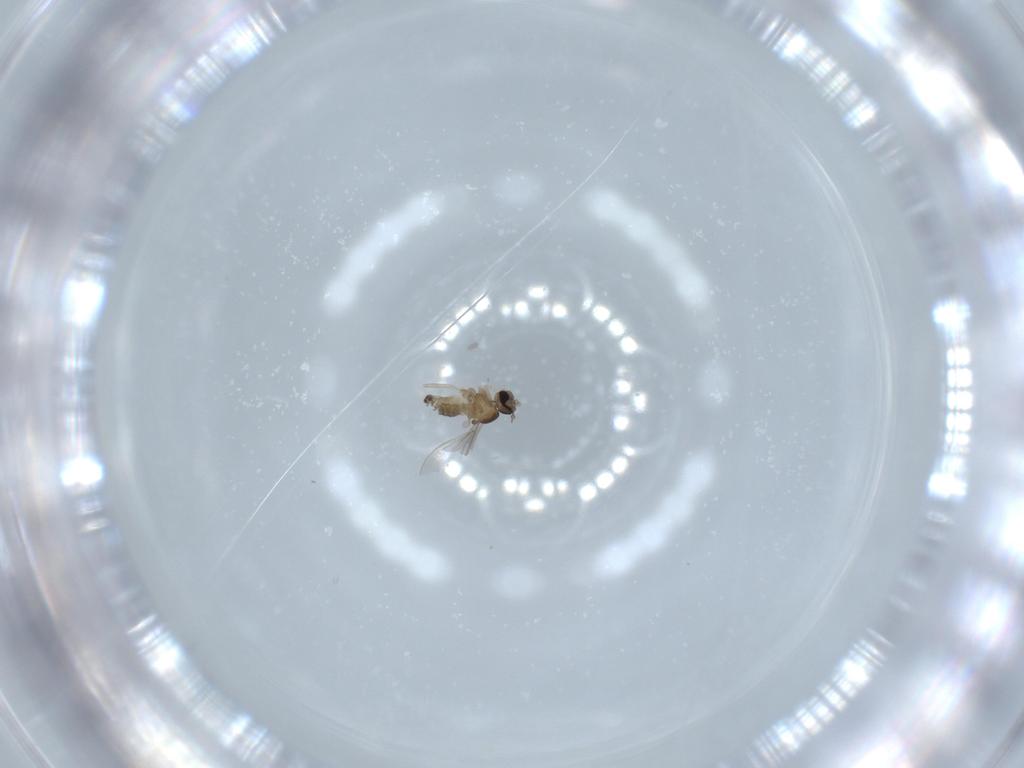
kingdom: Animalia
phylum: Arthropoda
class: Insecta
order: Diptera
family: Cecidomyiidae
